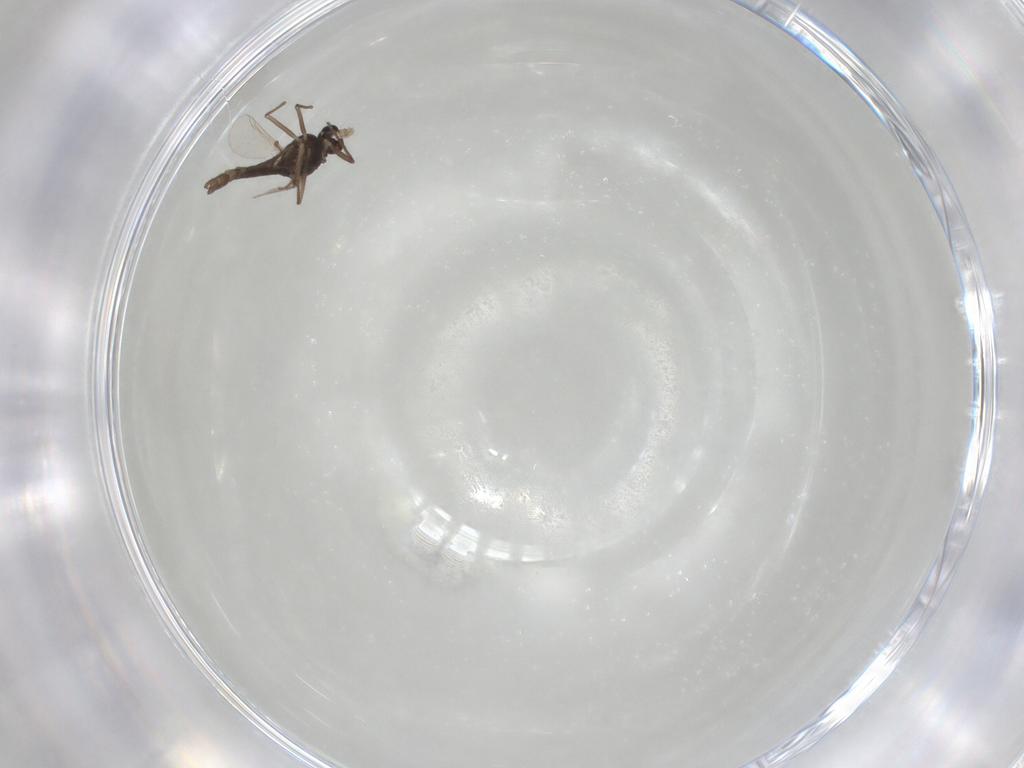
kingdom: Animalia
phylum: Arthropoda
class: Insecta
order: Diptera
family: Chironomidae
